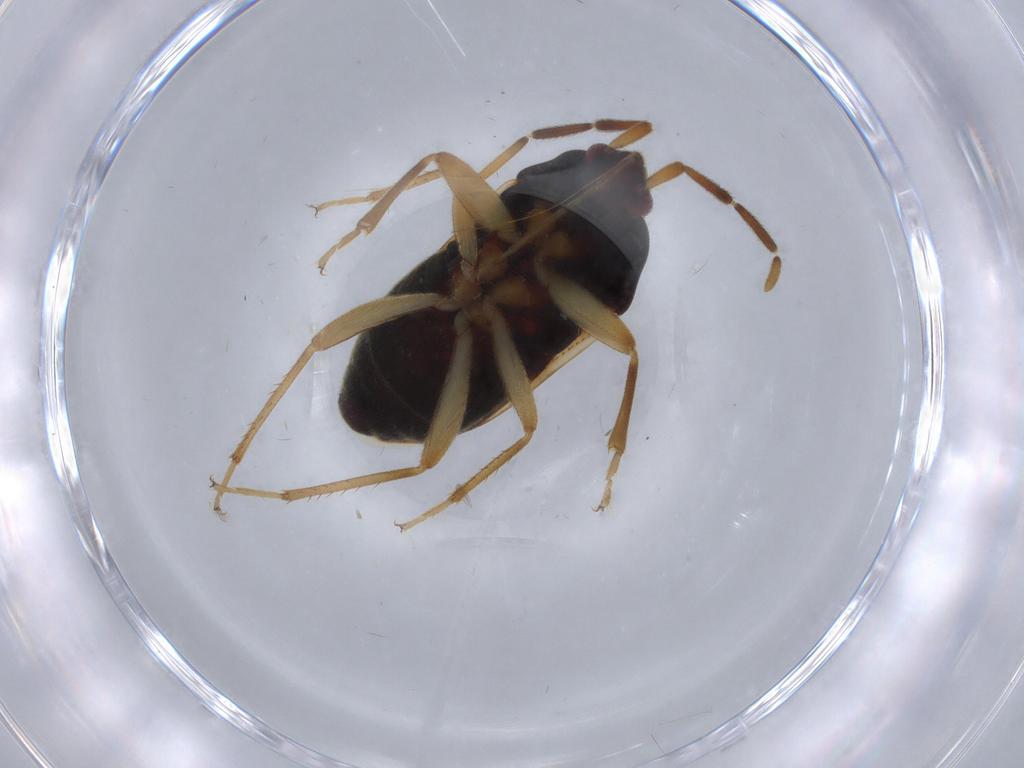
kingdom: Animalia
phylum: Arthropoda
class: Insecta
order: Hemiptera
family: Rhyparochromidae
